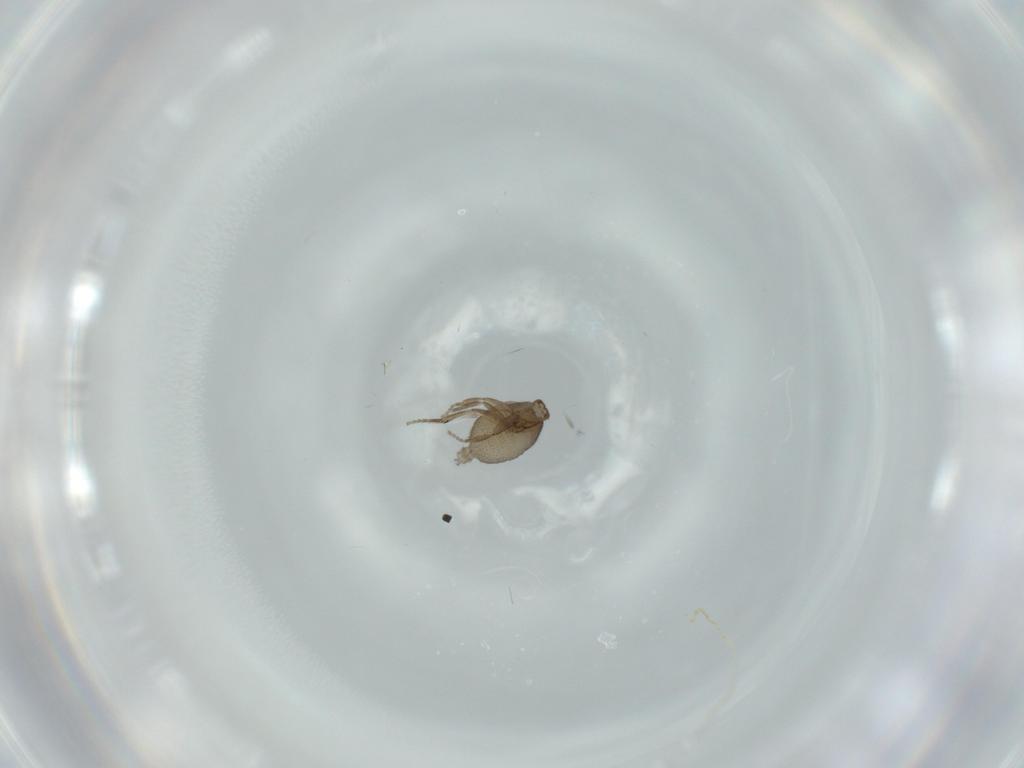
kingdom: Animalia
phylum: Arthropoda
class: Insecta
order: Diptera
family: Phoridae
